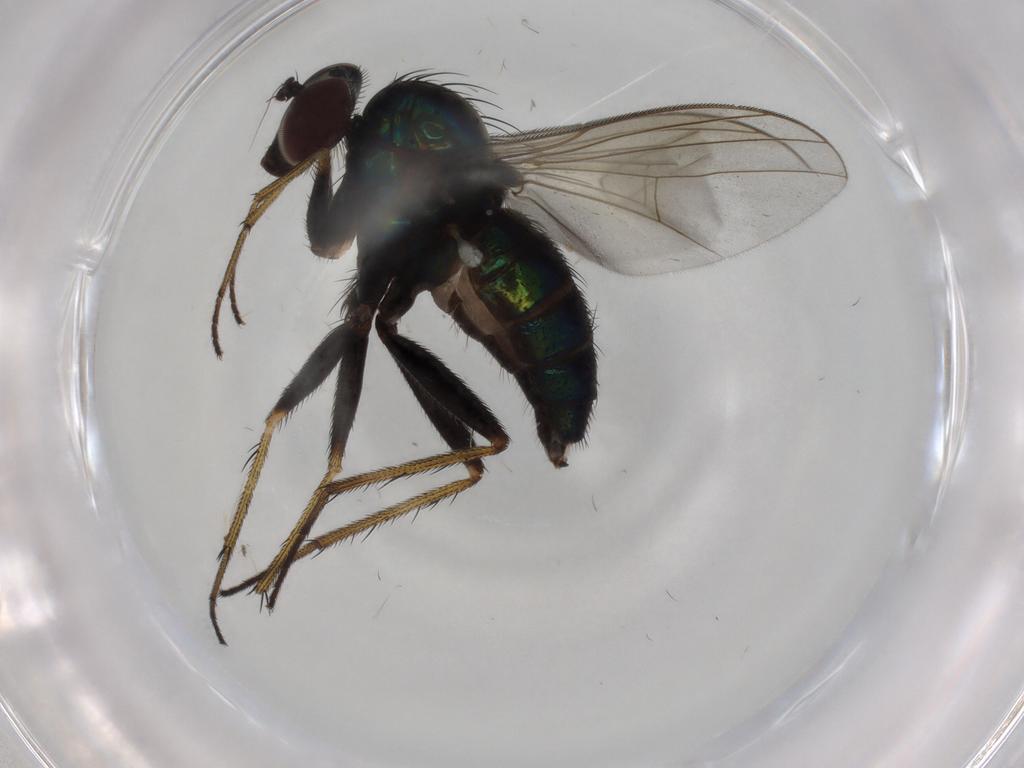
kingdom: Animalia
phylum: Arthropoda
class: Insecta
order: Diptera
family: Dolichopodidae
